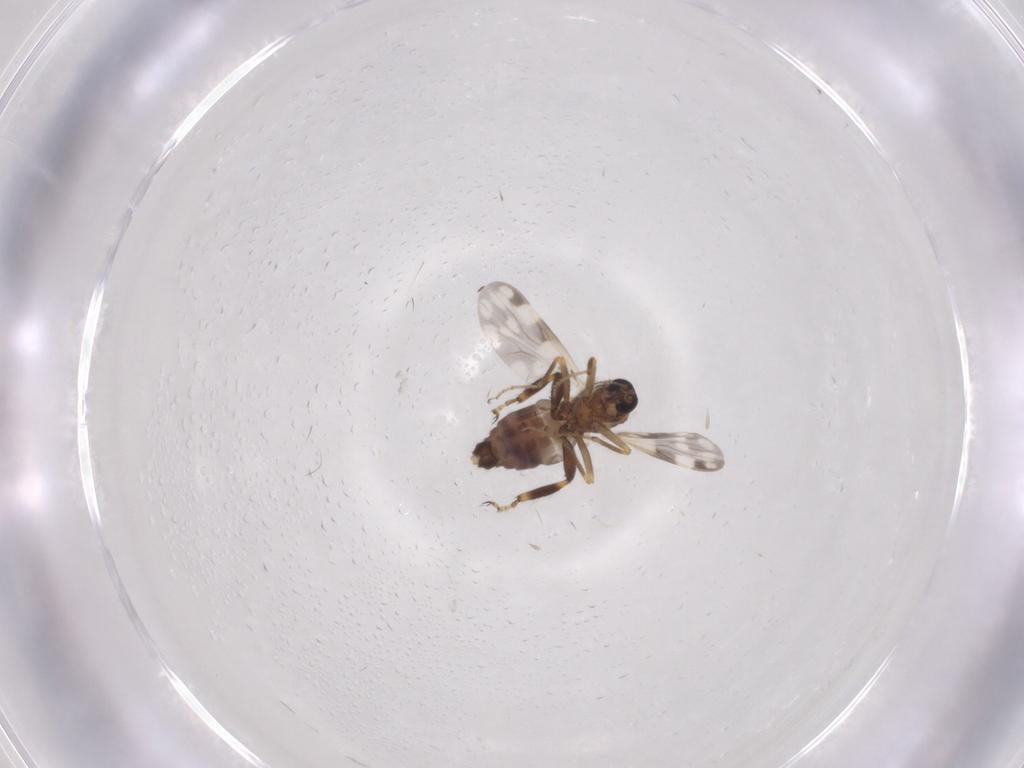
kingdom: Animalia
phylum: Arthropoda
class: Insecta
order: Diptera
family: Ceratopogonidae
